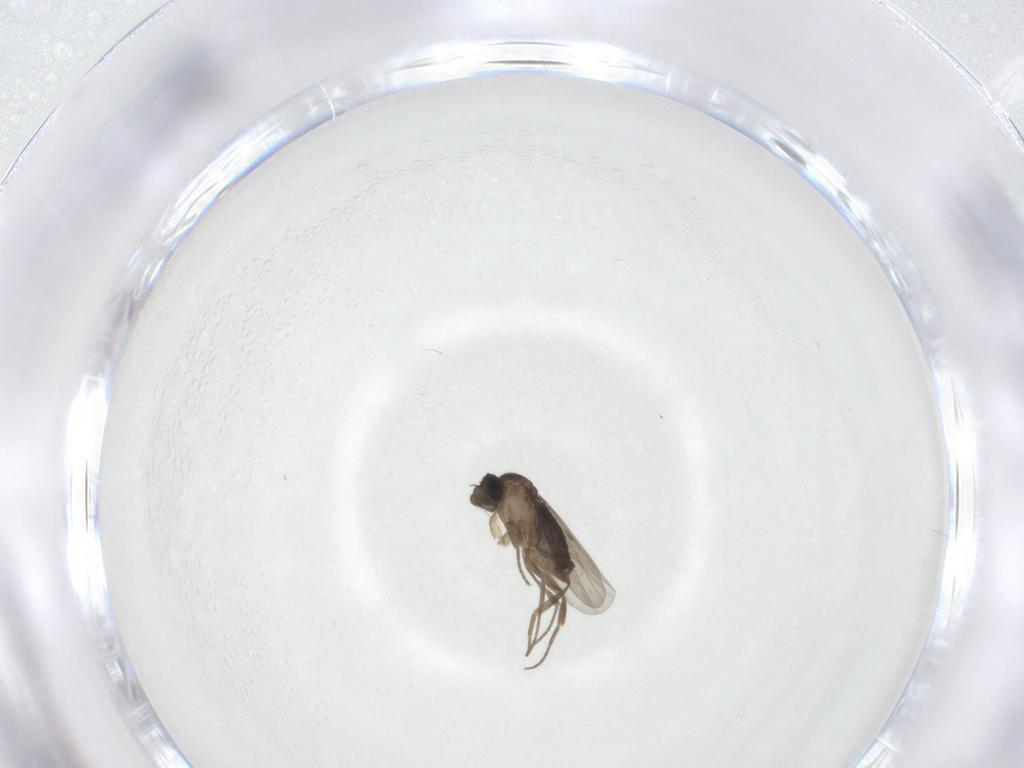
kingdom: Animalia
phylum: Arthropoda
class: Insecta
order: Diptera
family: Phoridae
